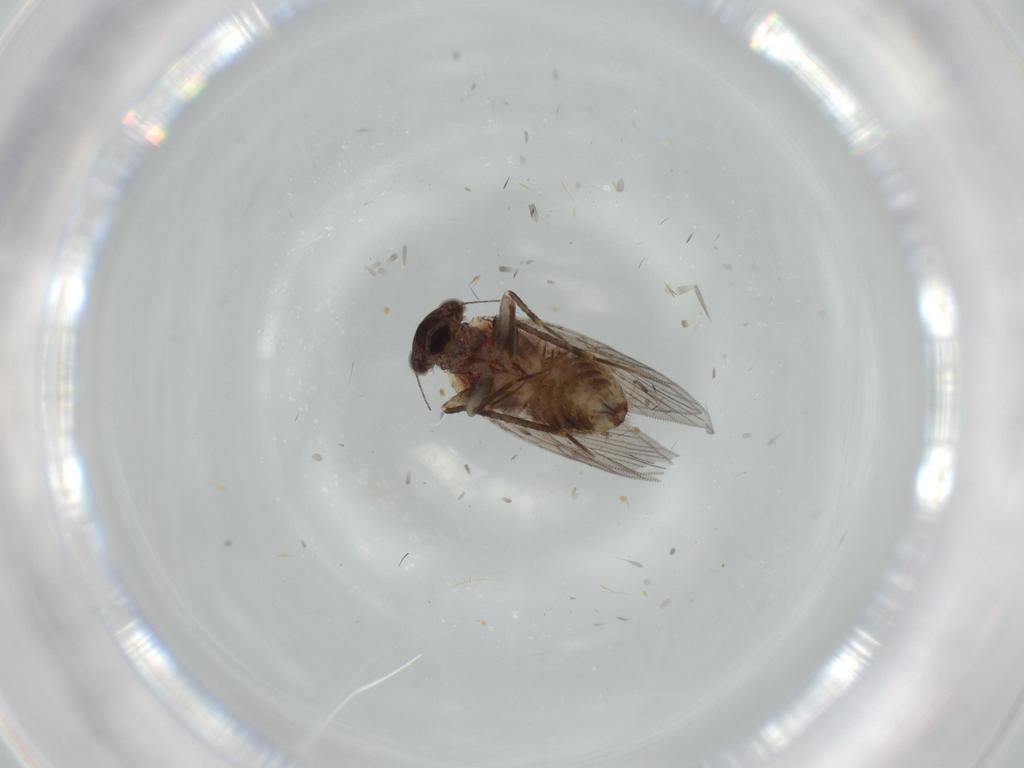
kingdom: Animalia
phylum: Arthropoda
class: Insecta
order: Psocodea
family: Lepidopsocidae
